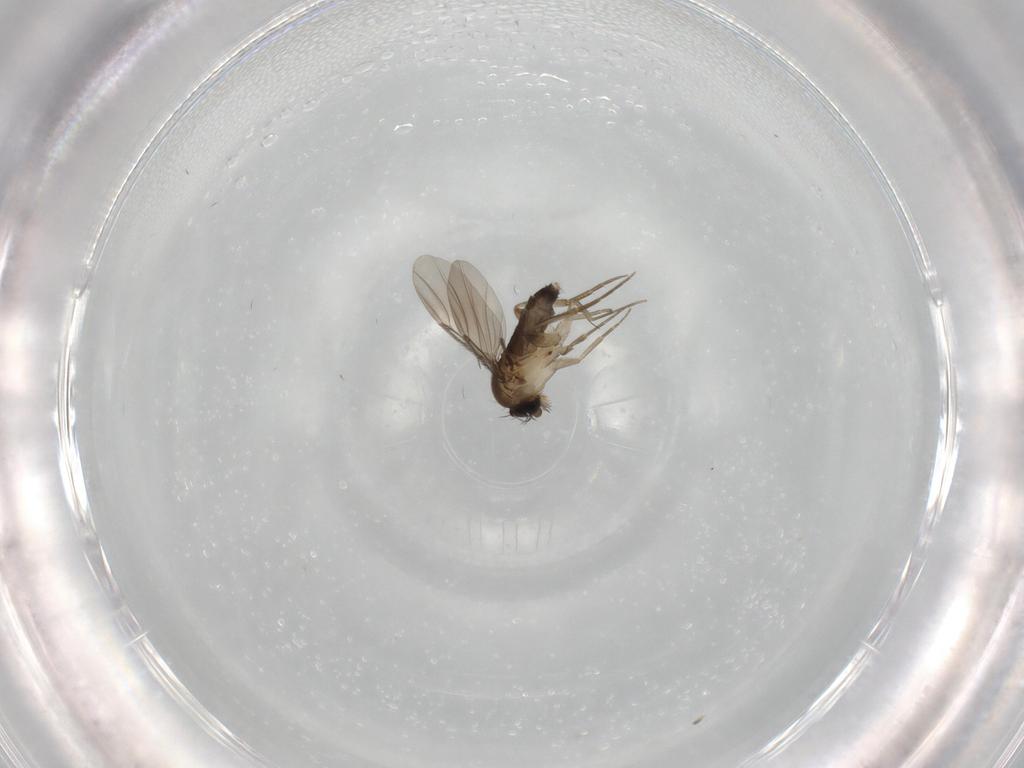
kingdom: Animalia
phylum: Arthropoda
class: Insecta
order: Diptera
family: Phoridae
